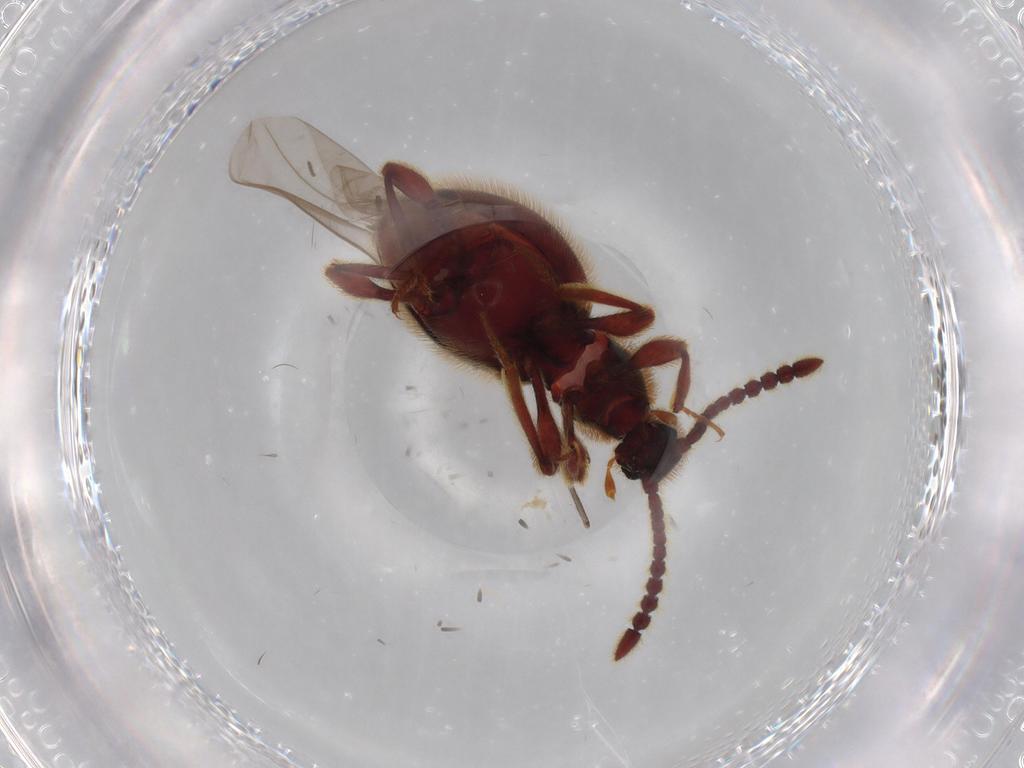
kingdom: Animalia
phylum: Arthropoda
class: Insecta
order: Coleoptera
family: Staphylinidae
